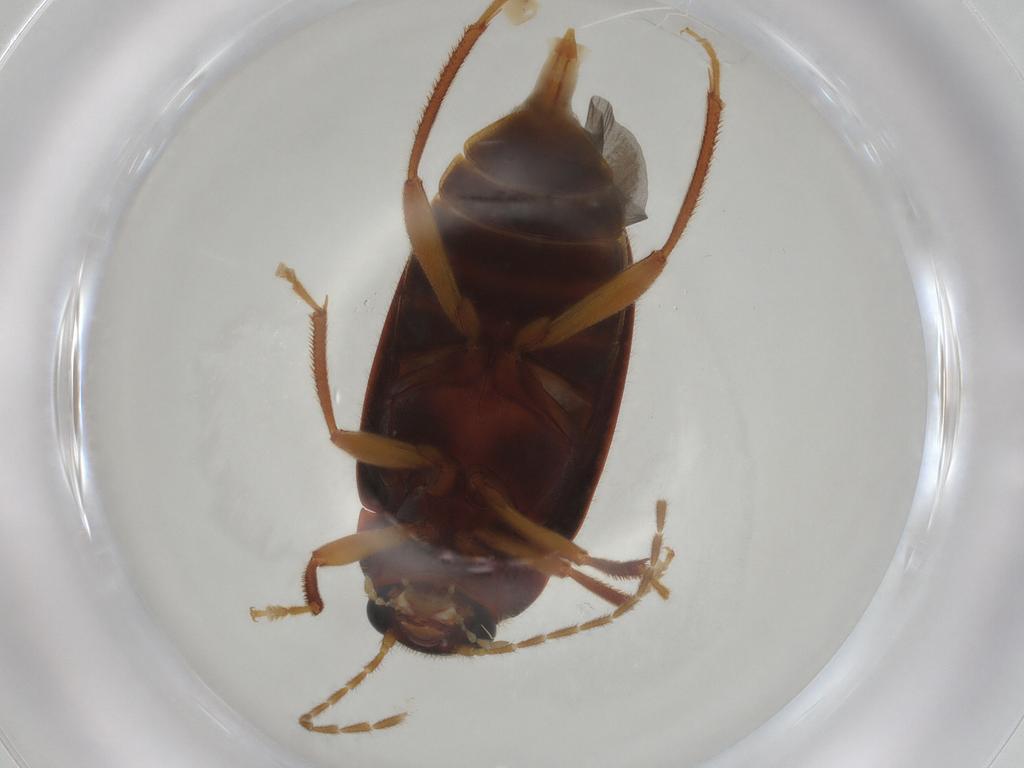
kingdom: Animalia
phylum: Arthropoda
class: Insecta
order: Coleoptera
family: Ptilodactylidae
